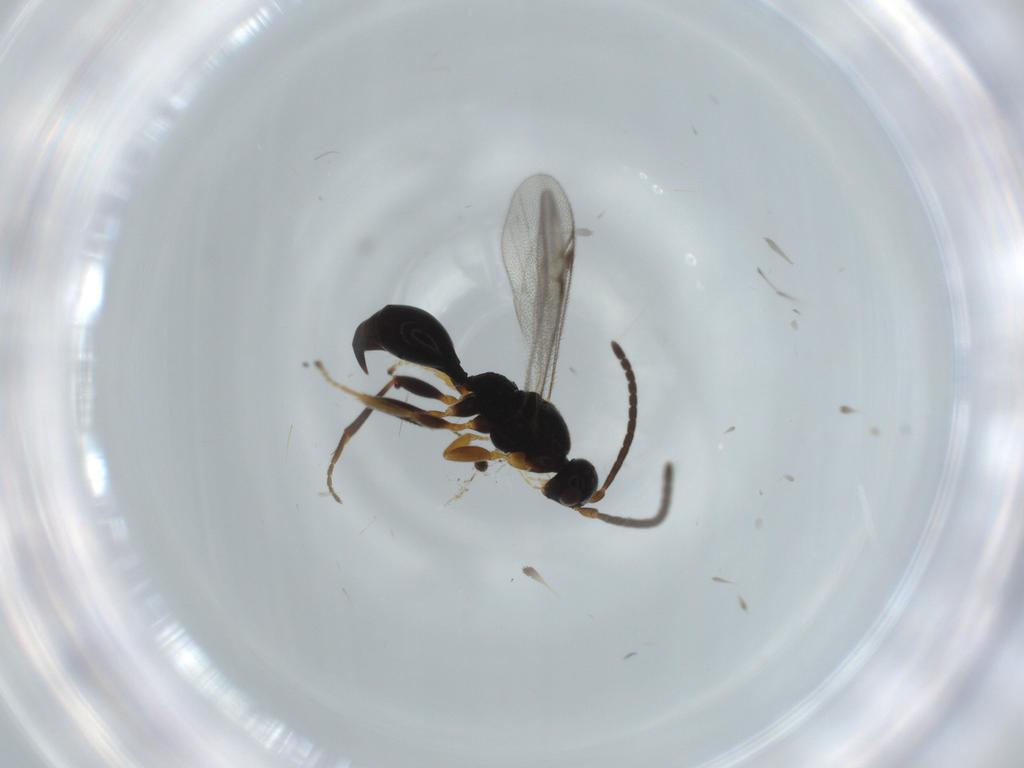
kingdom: Animalia
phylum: Arthropoda
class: Insecta
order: Hymenoptera
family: Proctotrupidae
